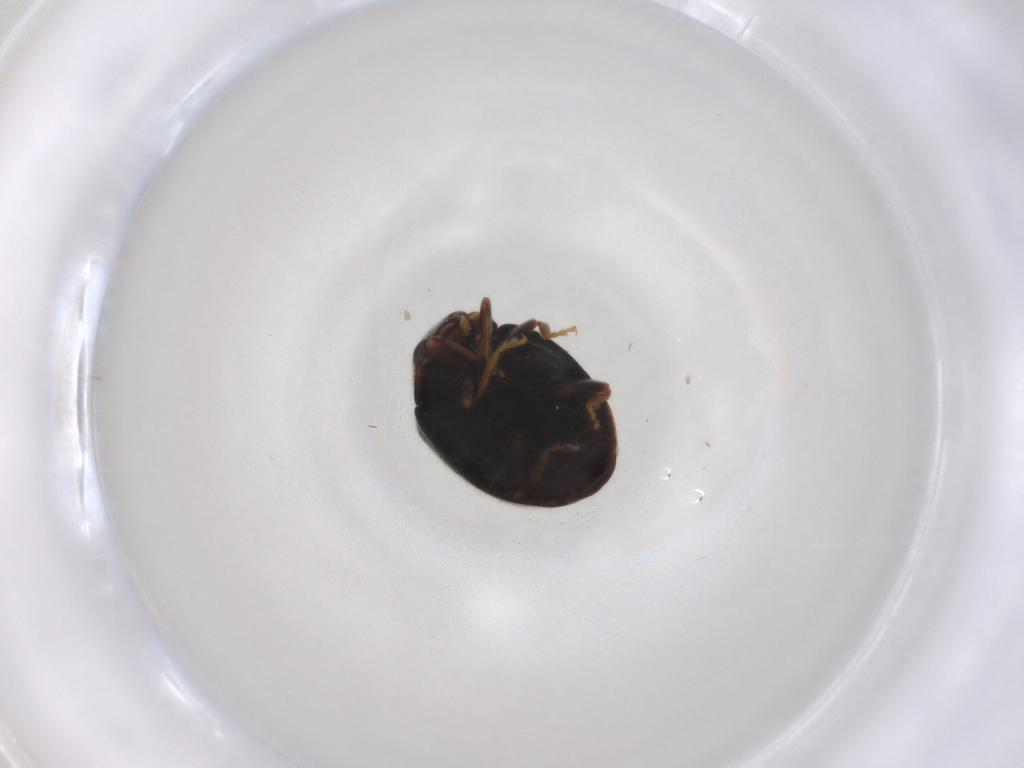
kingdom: Animalia
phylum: Arthropoda
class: Insecta
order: Coleoptera
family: Coccinellidae
